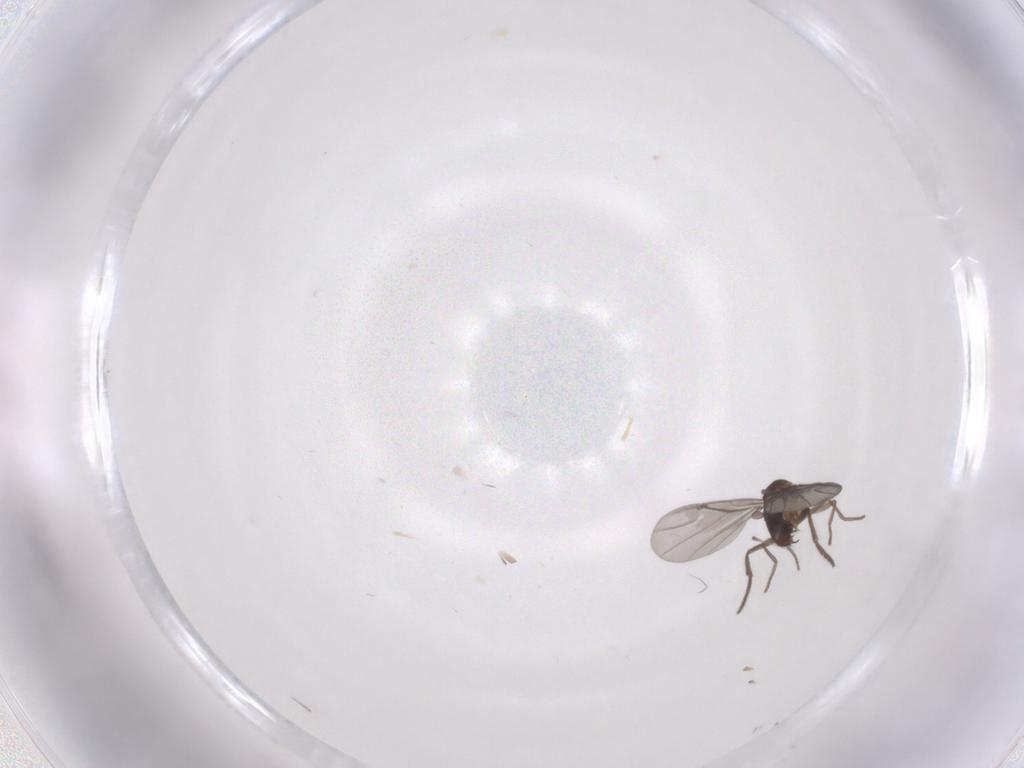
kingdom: Animalia
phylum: Arthropoda
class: Insecta
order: Diptera
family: Phoridae
